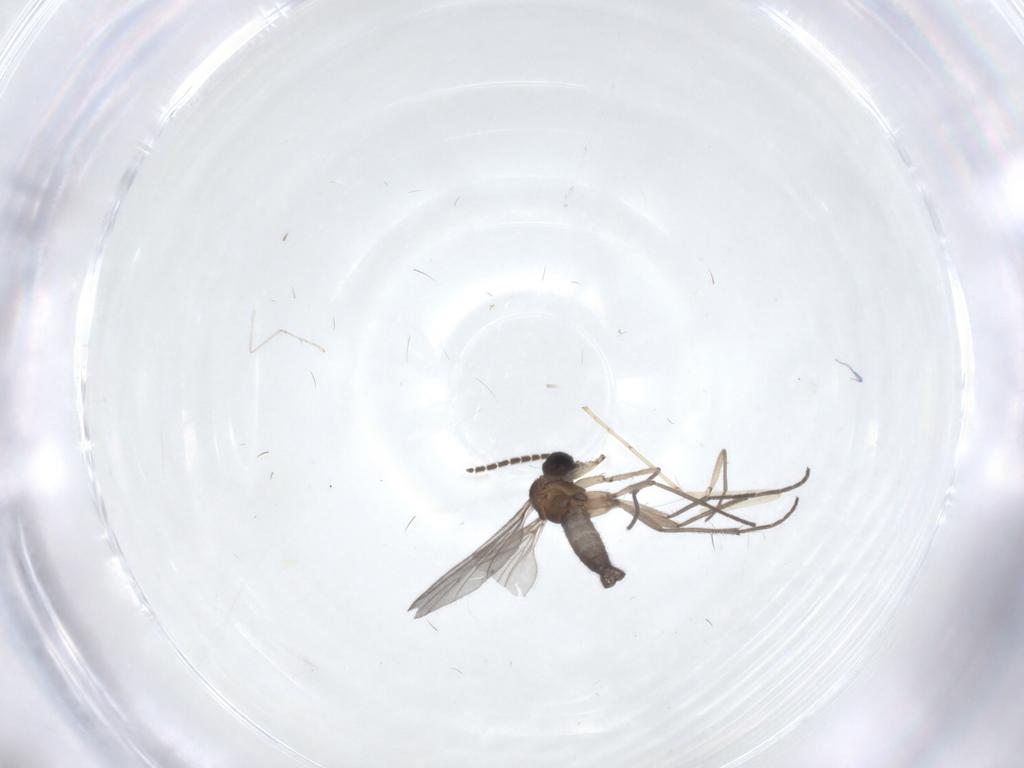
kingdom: Animalia
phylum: Arthropoda
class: Insecta
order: Diptera
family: Sciaridae
